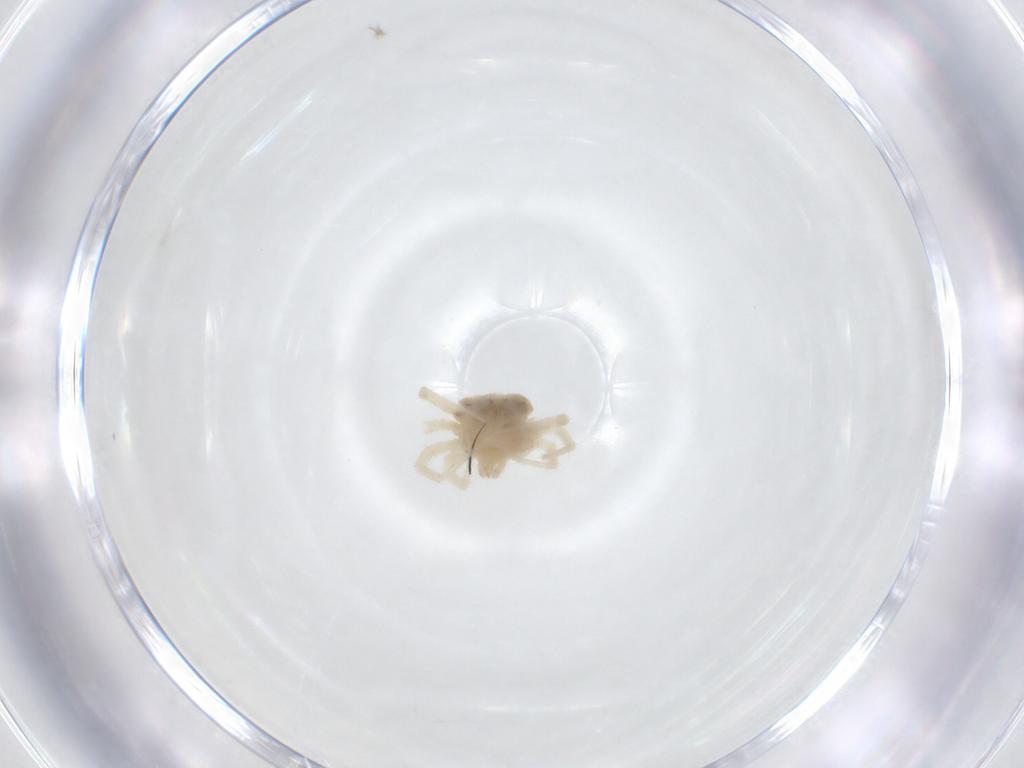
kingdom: Animalia
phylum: Arthropoda
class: Arachnida
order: Trombidiformes
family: Anystidae
